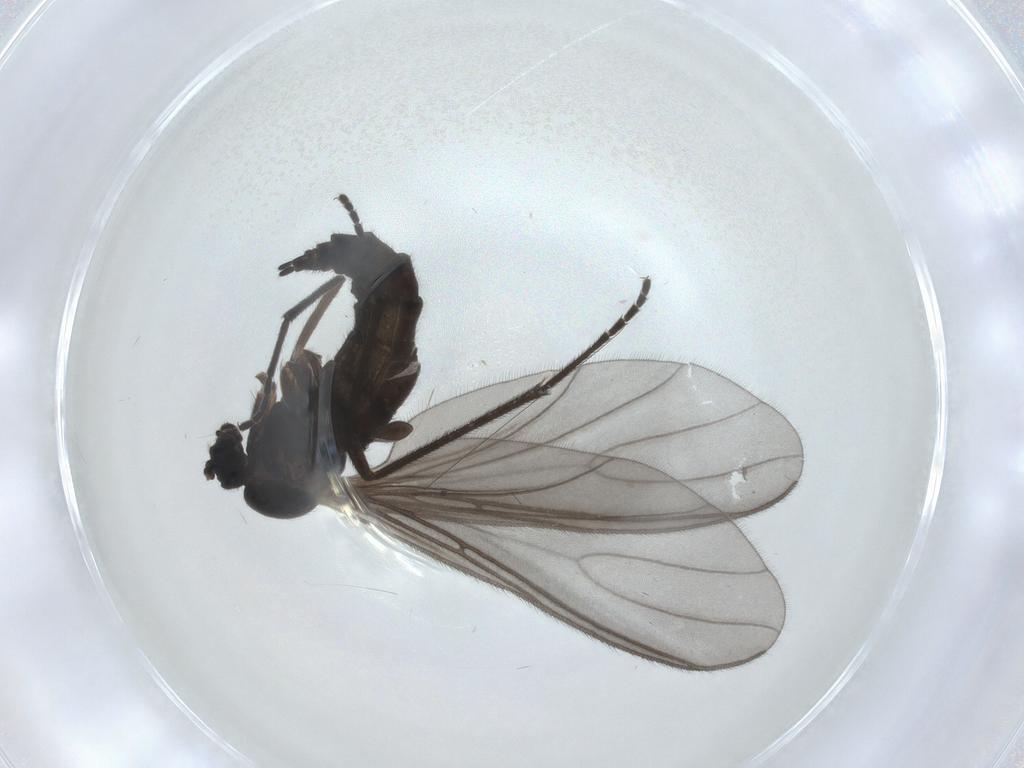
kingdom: Animalia
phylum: Arthropoda
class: Insecta
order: Diptera
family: Sciaridae
